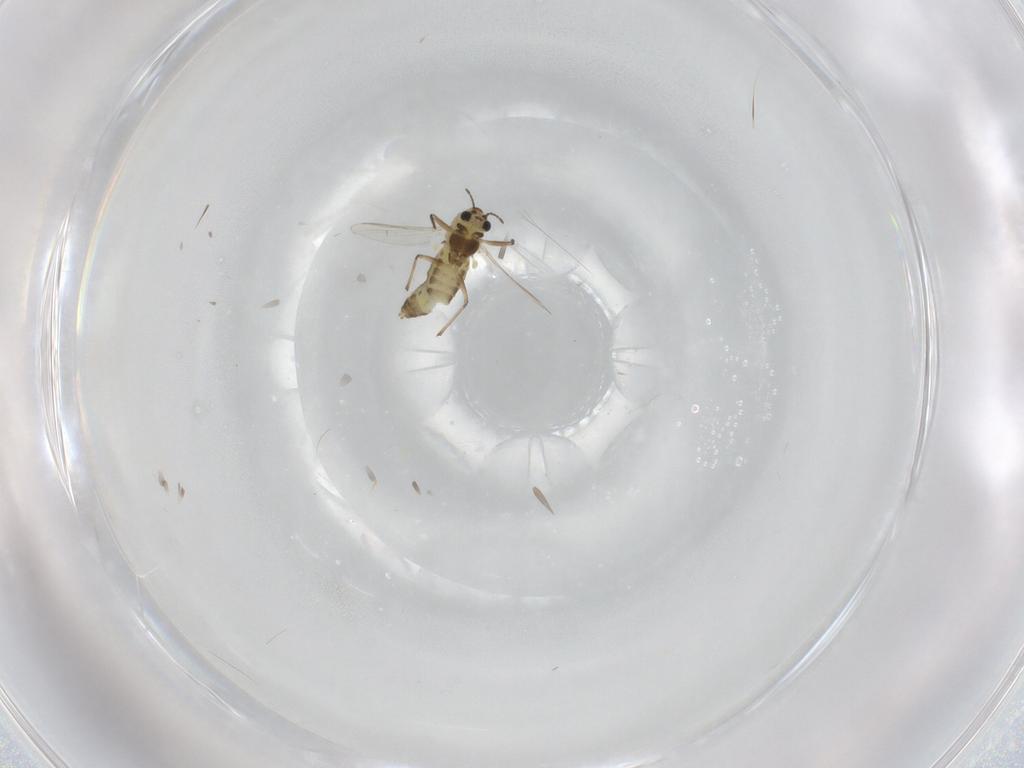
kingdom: Animalia
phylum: Arthropoda
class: Insecta
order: Diptera
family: Chironomidae
